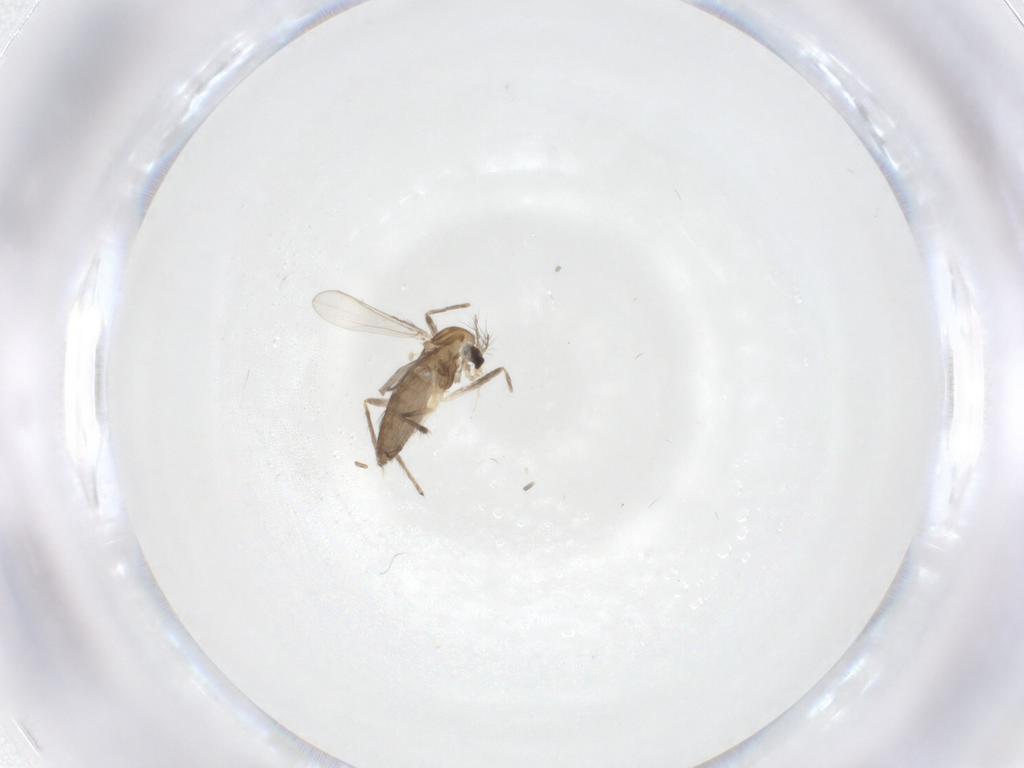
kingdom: Animalia
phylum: Arthropoda
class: Insecta
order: Diptera
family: Chironomidae
